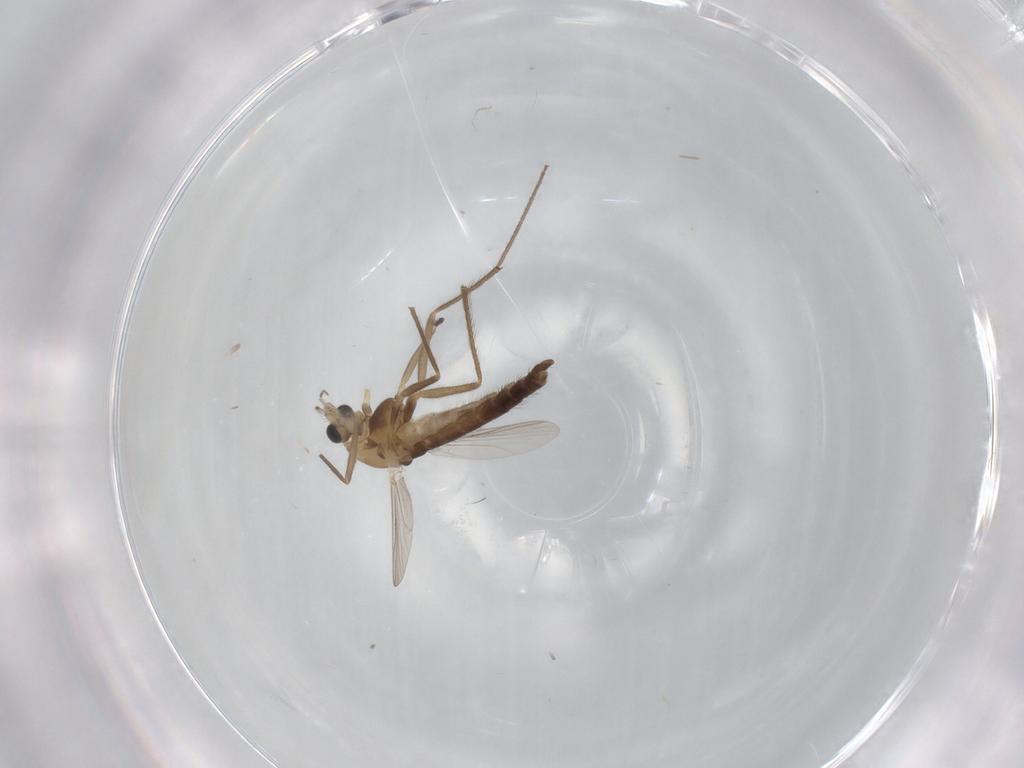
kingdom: Animalia
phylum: Arthropoda
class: Insecta
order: Diptera
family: Chironomidae
